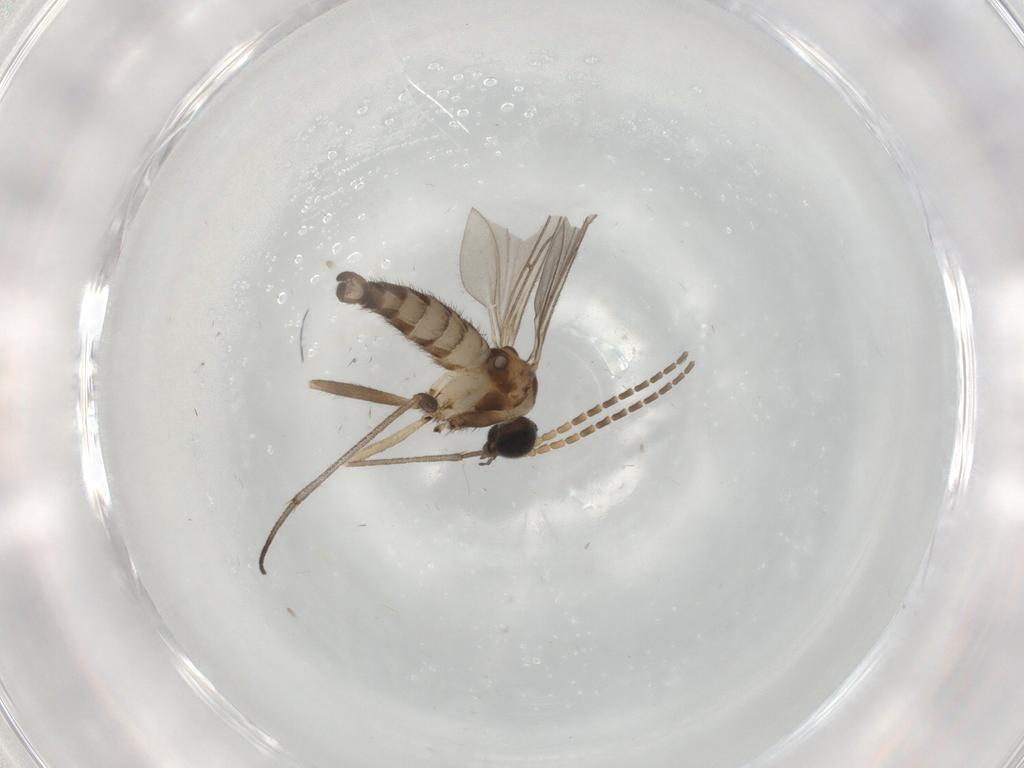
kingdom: Animalia
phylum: Arthropoda
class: Insecta
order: Diptera
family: Sciaridae
